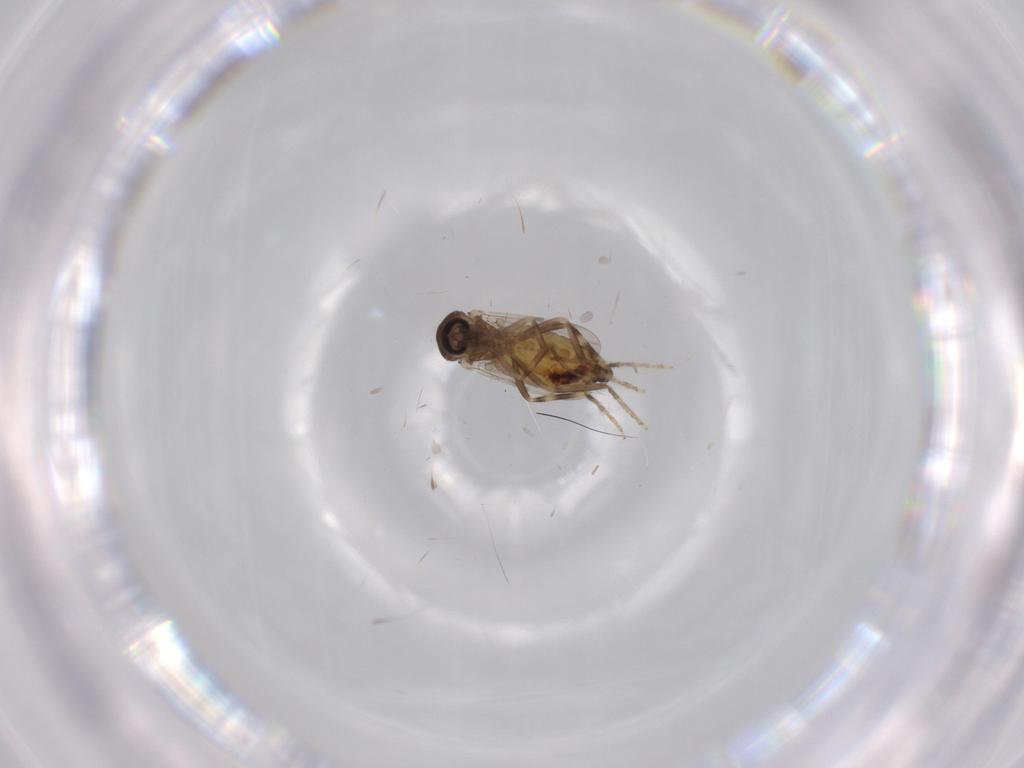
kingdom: Animalia
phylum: Arthropoda
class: Insecta
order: Diptera
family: Ceratopogonidae
